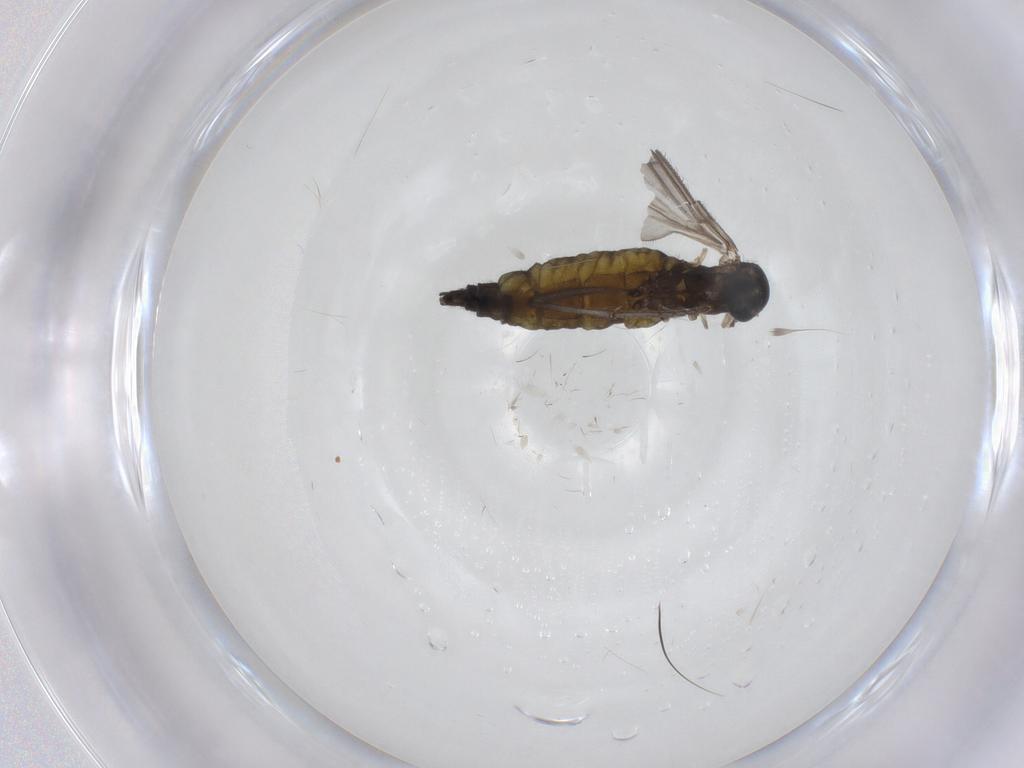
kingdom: Animalia
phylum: Arthropoda
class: Insecta
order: Diptera
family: Sciaridae
